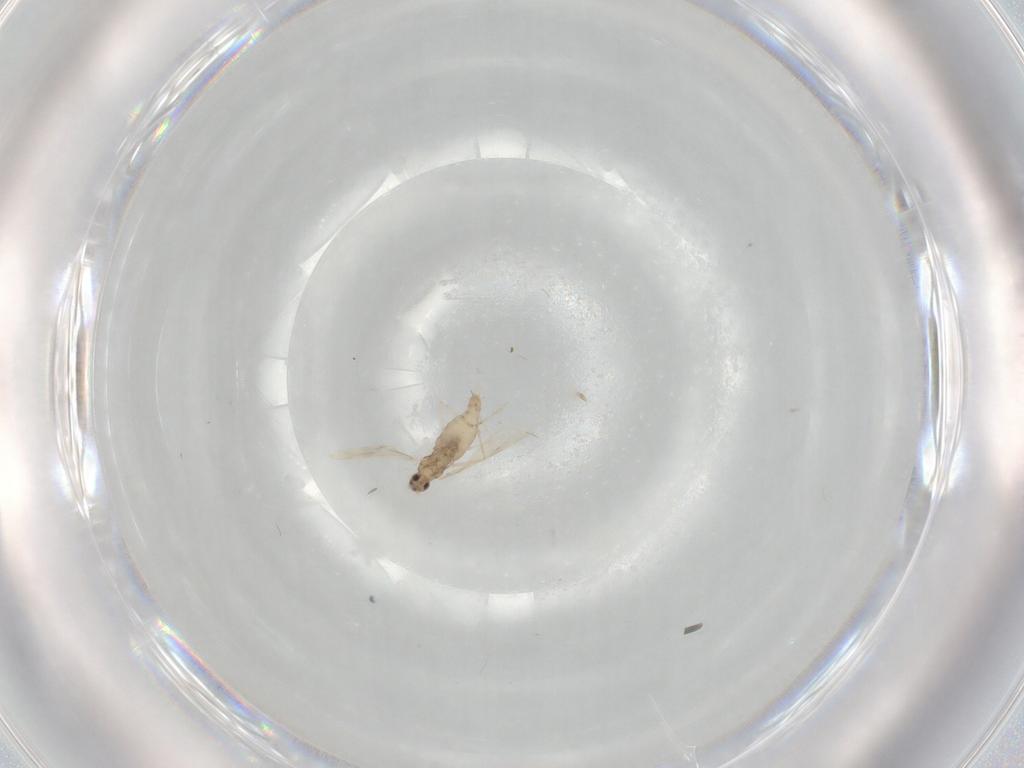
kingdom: Animalia
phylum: Arthropoda
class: Insecta
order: Diptera
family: Cecidomyiidae
